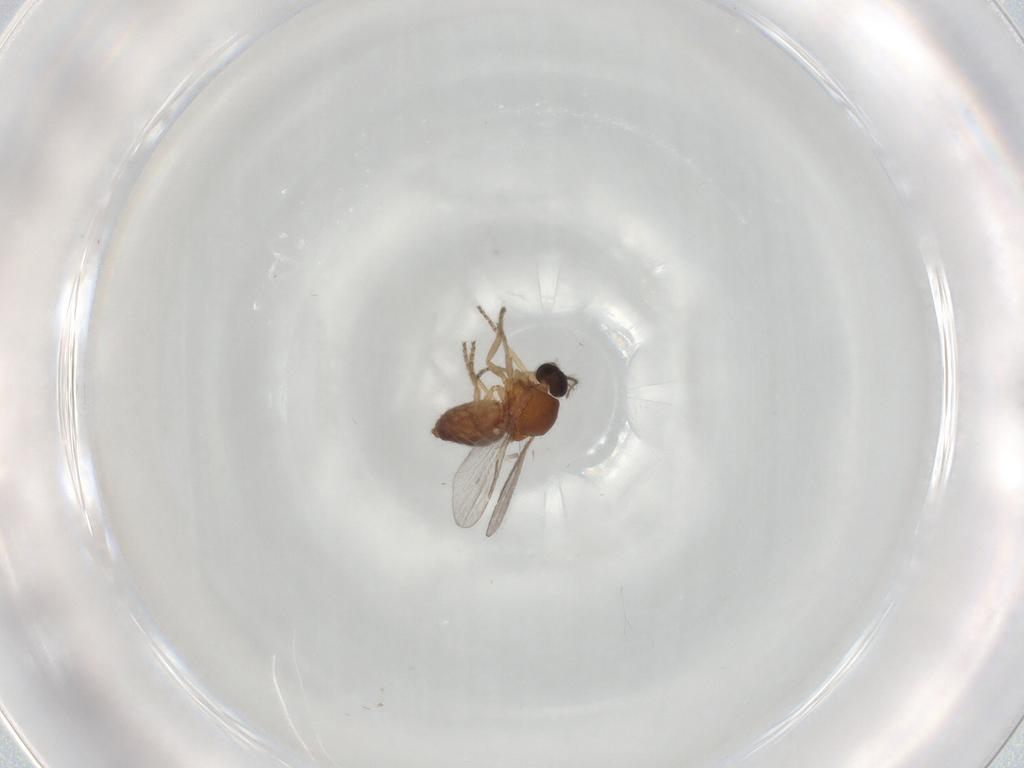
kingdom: Animalia
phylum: Arthropoda
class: Insecta
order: Diptera
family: Ceratopogonidae
